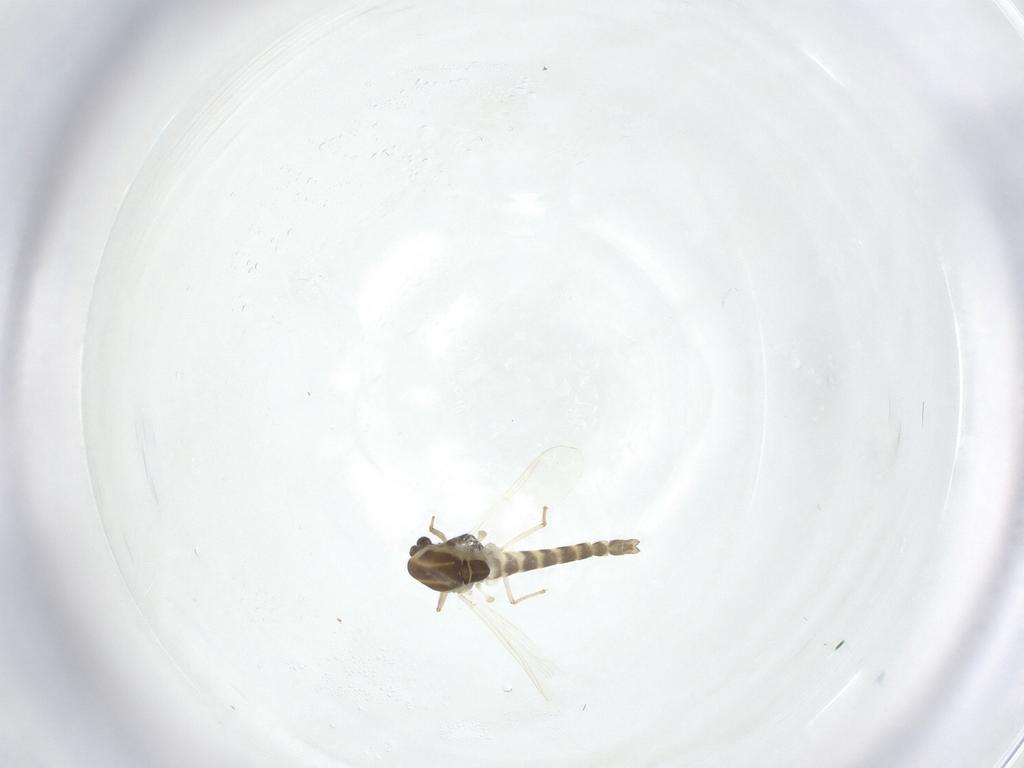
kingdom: Animalia
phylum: Arthropoda
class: Insecta
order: Diptera
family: Chironomidae
